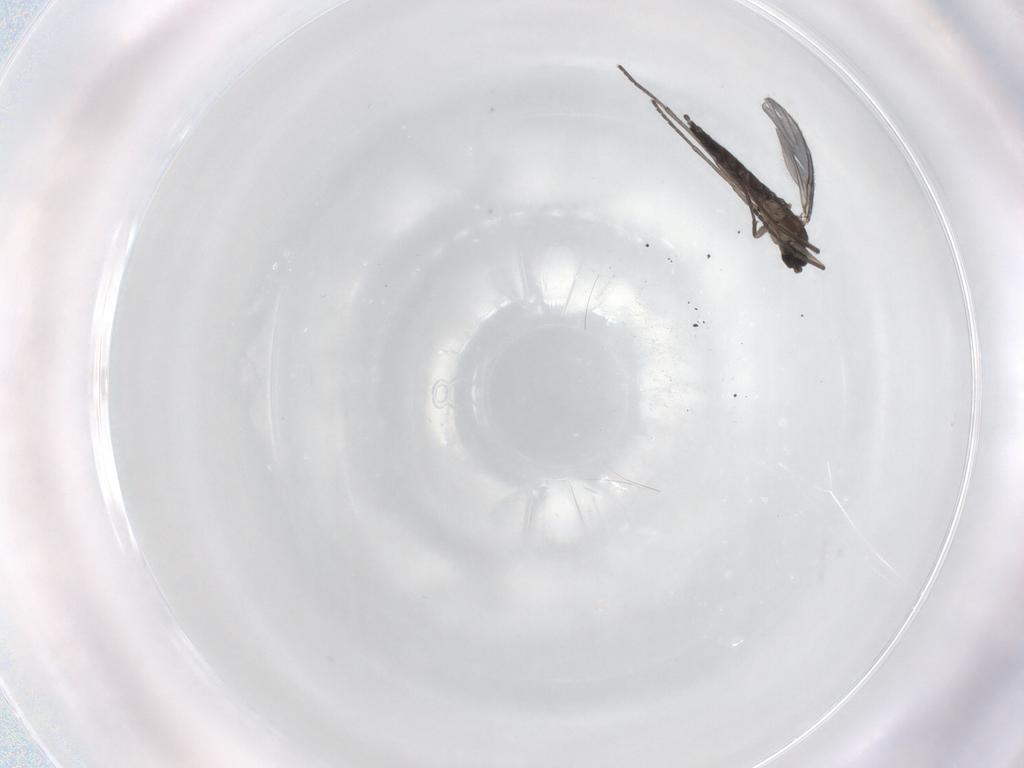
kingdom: Animalia
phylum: Arthropoda
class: Insecta
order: Diptera
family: Sciaridae
